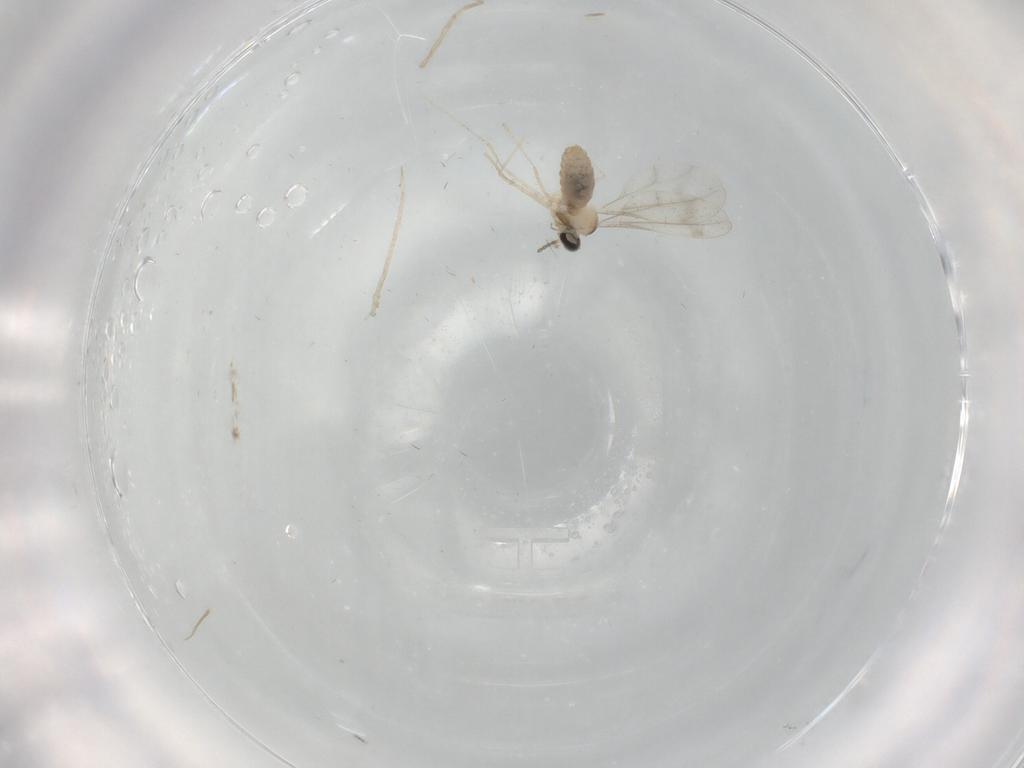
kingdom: Animalia
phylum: Arthropoda
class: Insecta
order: Diptera
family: Cecidomyiidae
